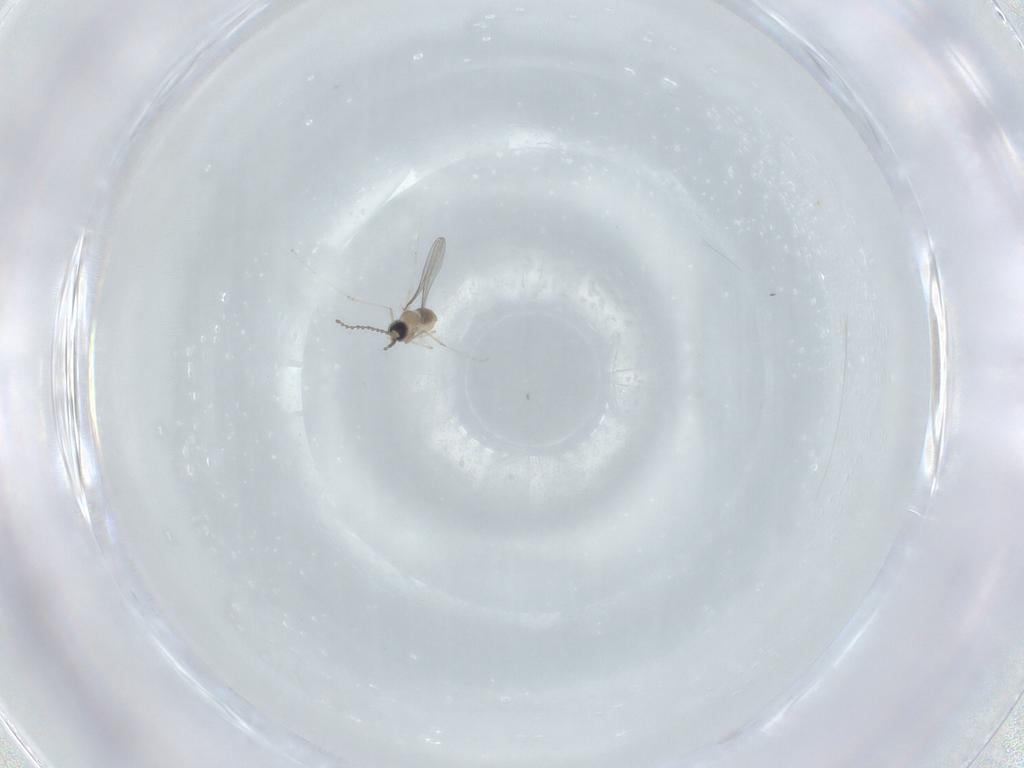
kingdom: Animalia
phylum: Arthropoda
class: Insecta
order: Diptera
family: Cecidomyiidae
